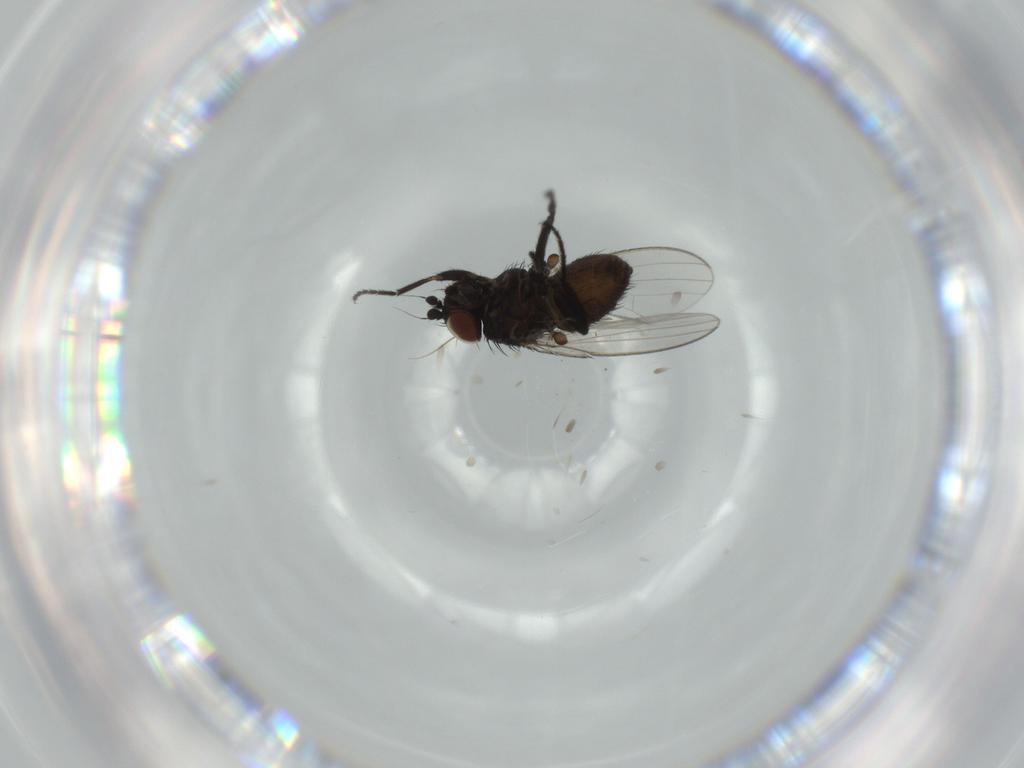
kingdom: Animalia
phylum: Arthropoda
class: Insecta
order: Diptera
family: Milichiidae
